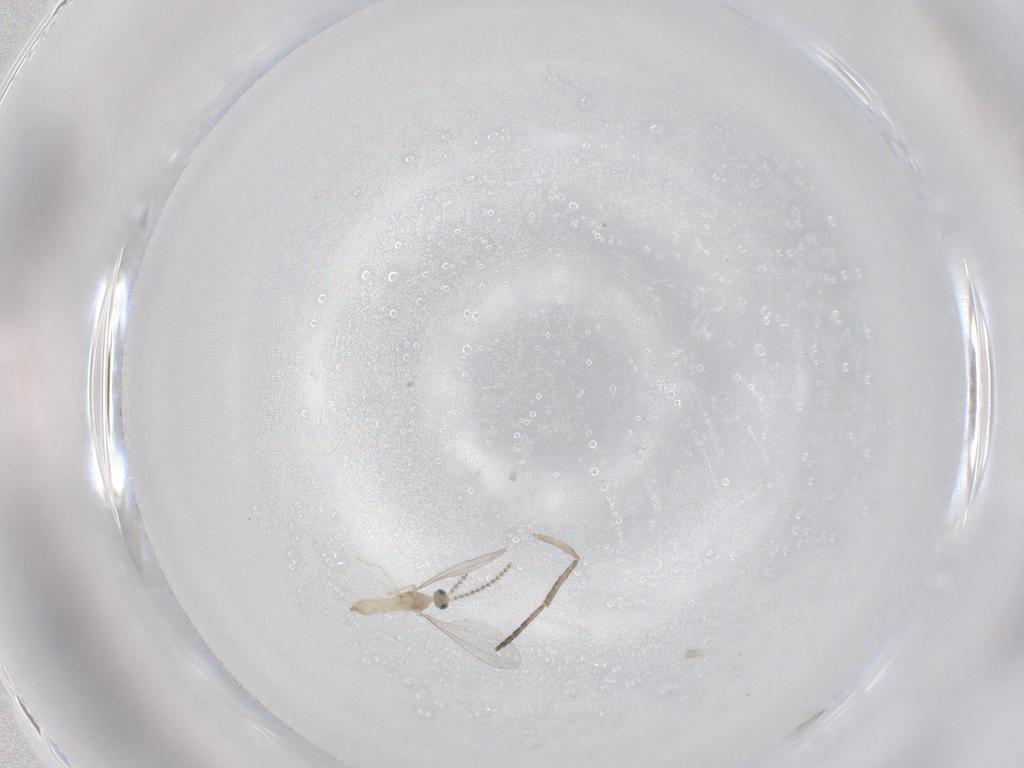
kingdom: Animalia
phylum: Arthropoda
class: Insecta
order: Diptera
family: Cecidomyiidae
